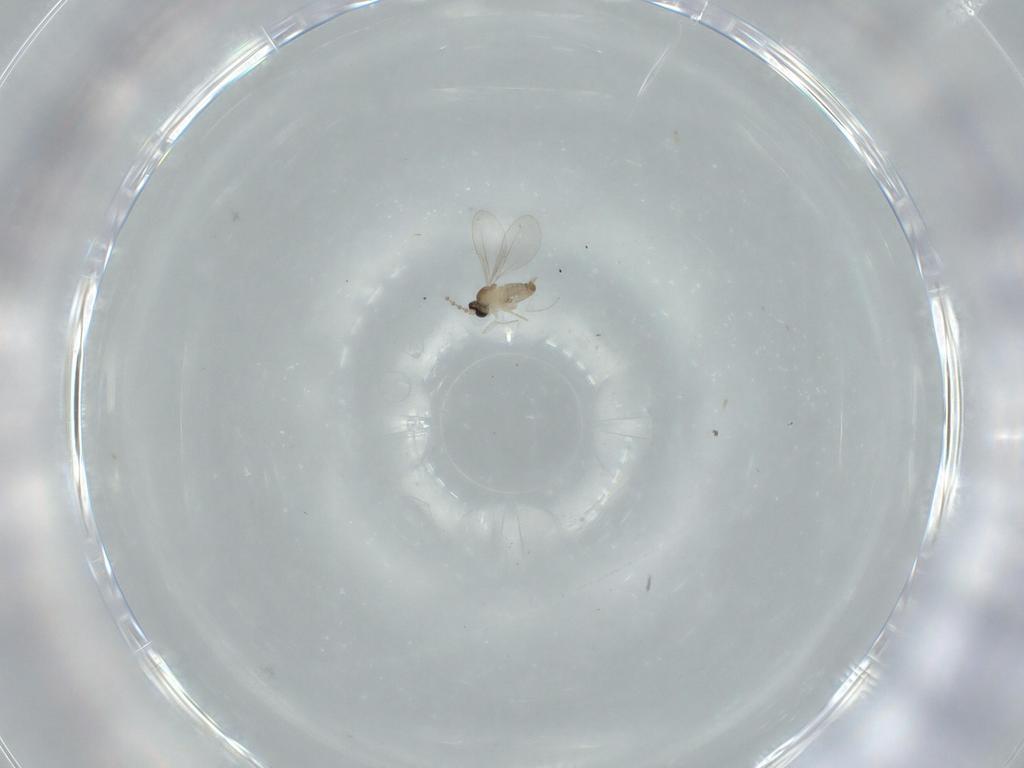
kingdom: Animalia
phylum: Arthropoda
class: Insecta
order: Diptera
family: Cecidomyiidae
